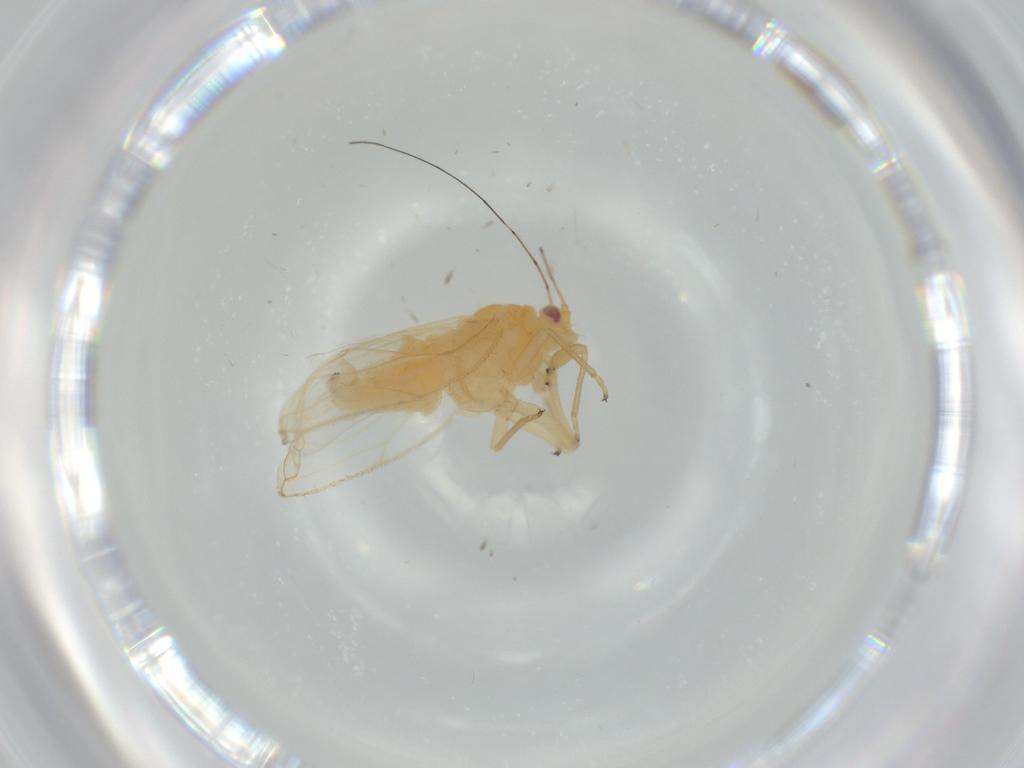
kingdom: Animalia
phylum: Arthropoda
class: Insecta
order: Hemiptera
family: Psyllidae
